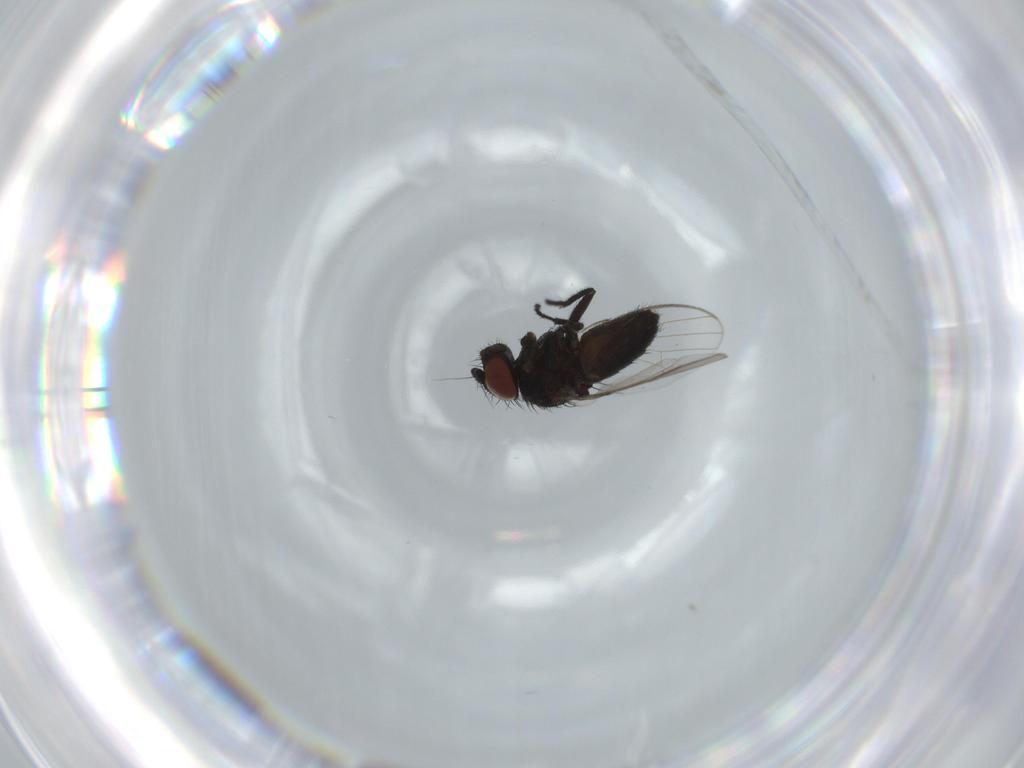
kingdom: Animalia
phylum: Arthropoda
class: Insecta
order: Diptera
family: Milichiidae
